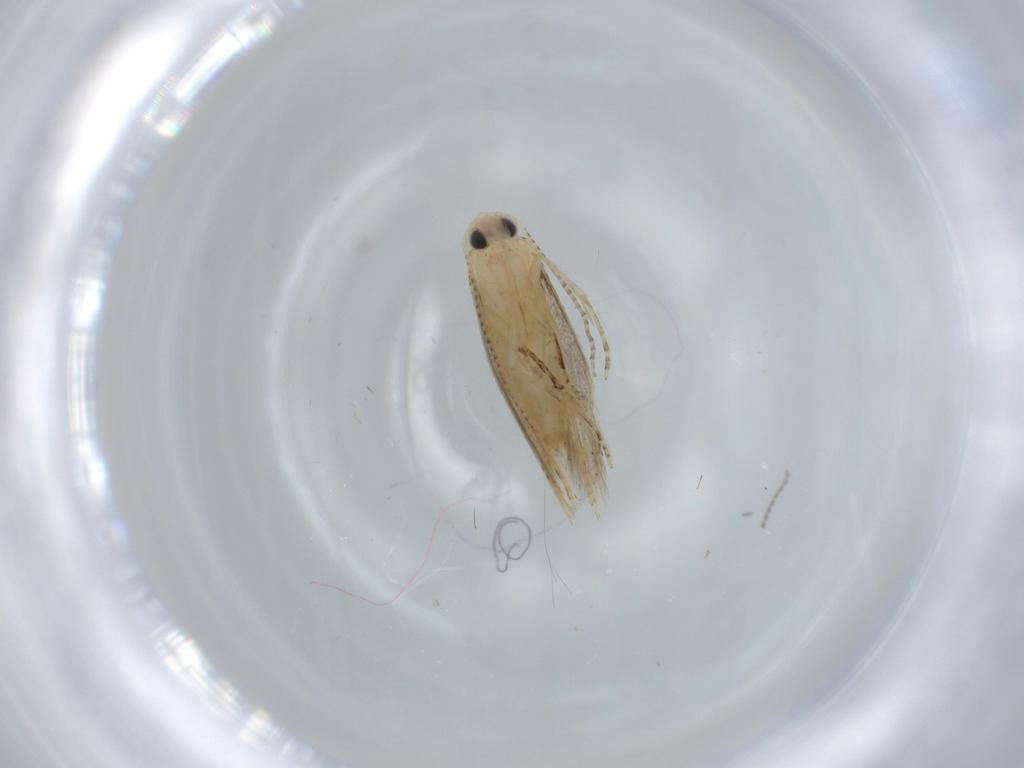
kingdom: Animalia
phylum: Arthropoda
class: Insecta
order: Lepidoptera
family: Bucculatricidae
